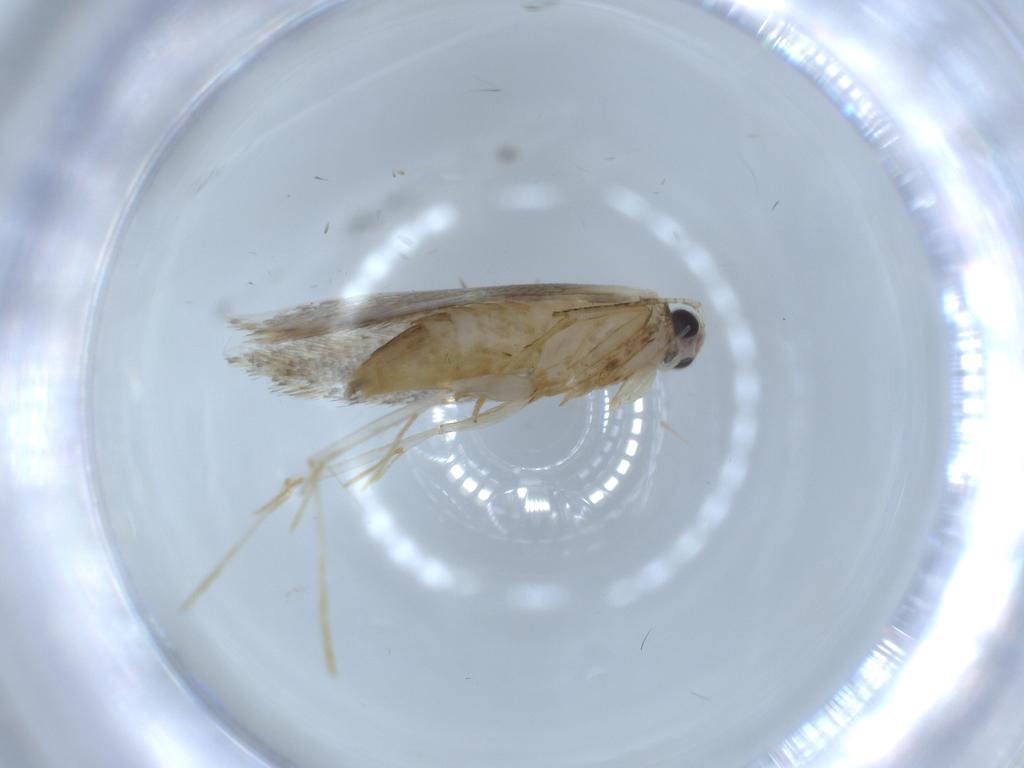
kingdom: Animalia
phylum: Arthropoda
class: Insecta
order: Lepidoptera
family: Tineidae
